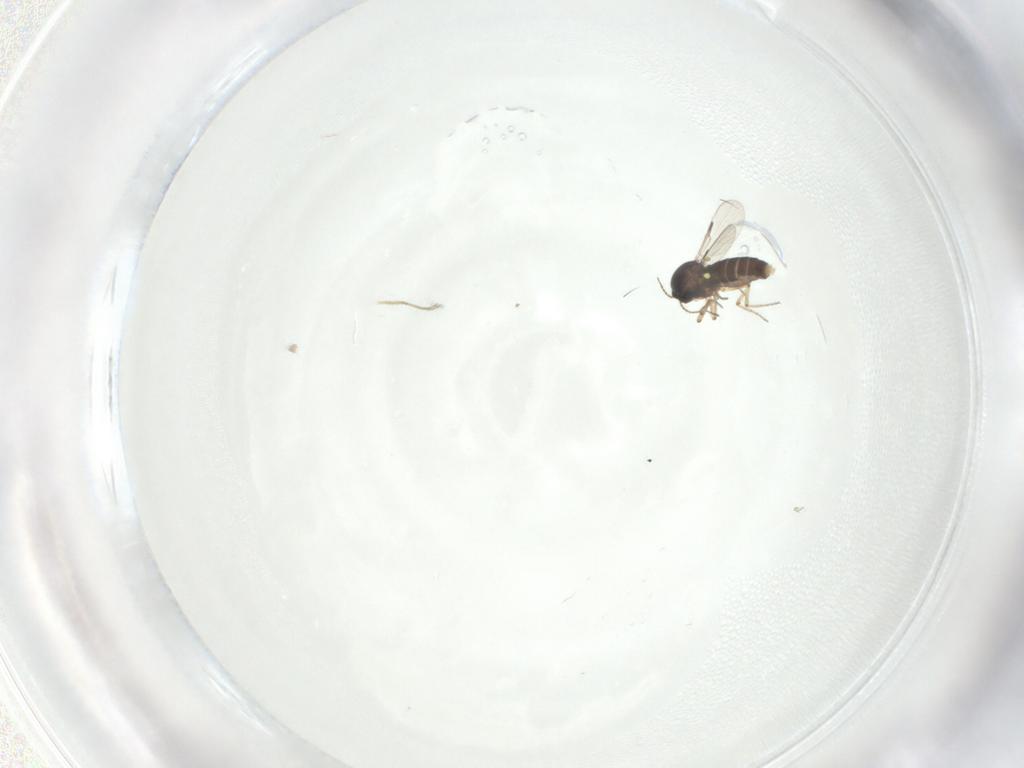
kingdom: Animalia
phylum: Arthropoda
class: Insecta
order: Diptera
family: Ceratopogonidae
